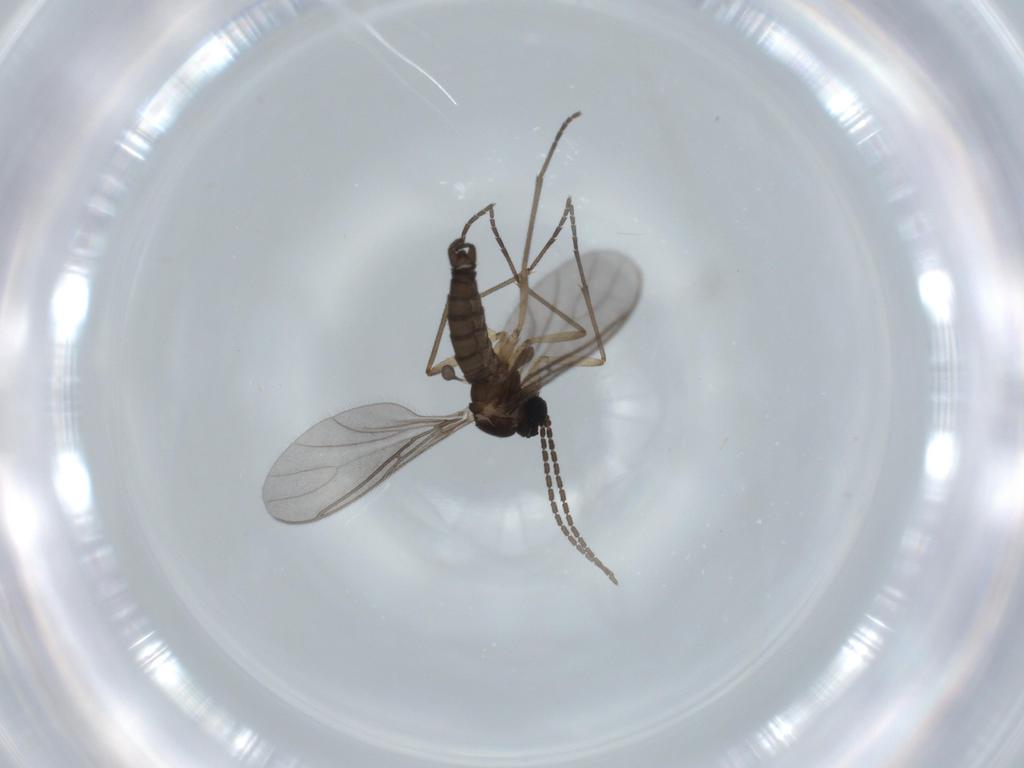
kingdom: Animalia
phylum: Arthropoda
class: Insecta
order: Diptera
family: Sciaridae
